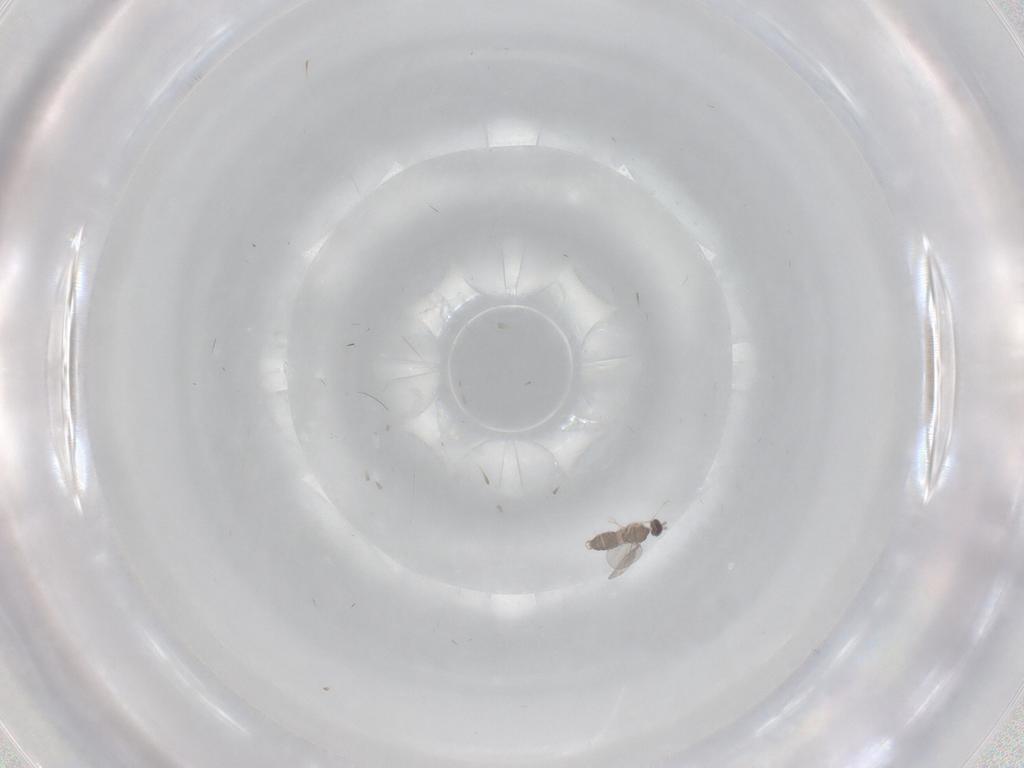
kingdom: Animalia
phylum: Arthropoda
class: Insecta
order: Diptera
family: Cecidomyiidae
